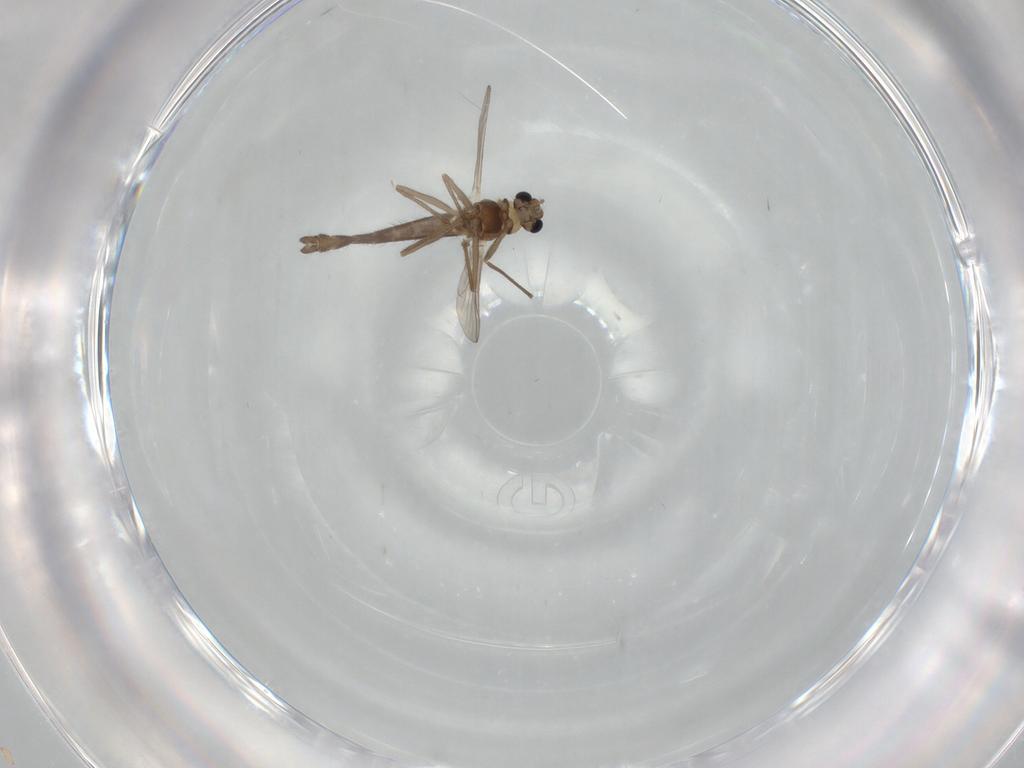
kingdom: Animalia
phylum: Arthropoda
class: Insecta
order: Diptera
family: Chironomidae
